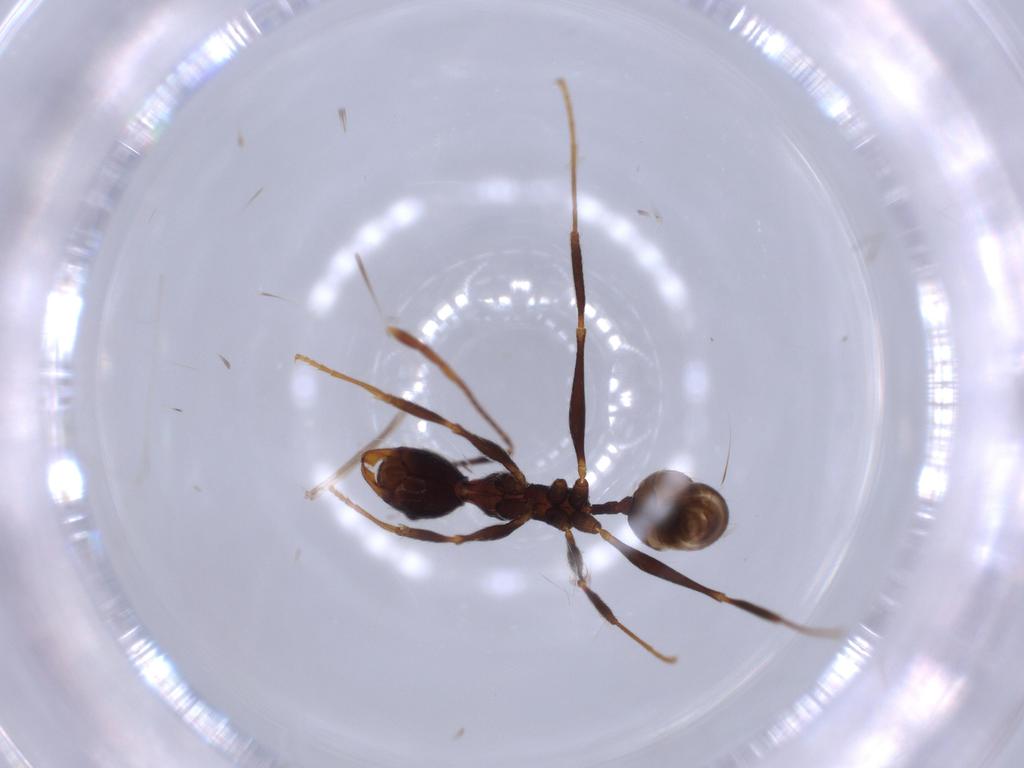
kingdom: Animalia
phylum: Arthropoda
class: Insecta
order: Hymenoptera
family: Formicidae
